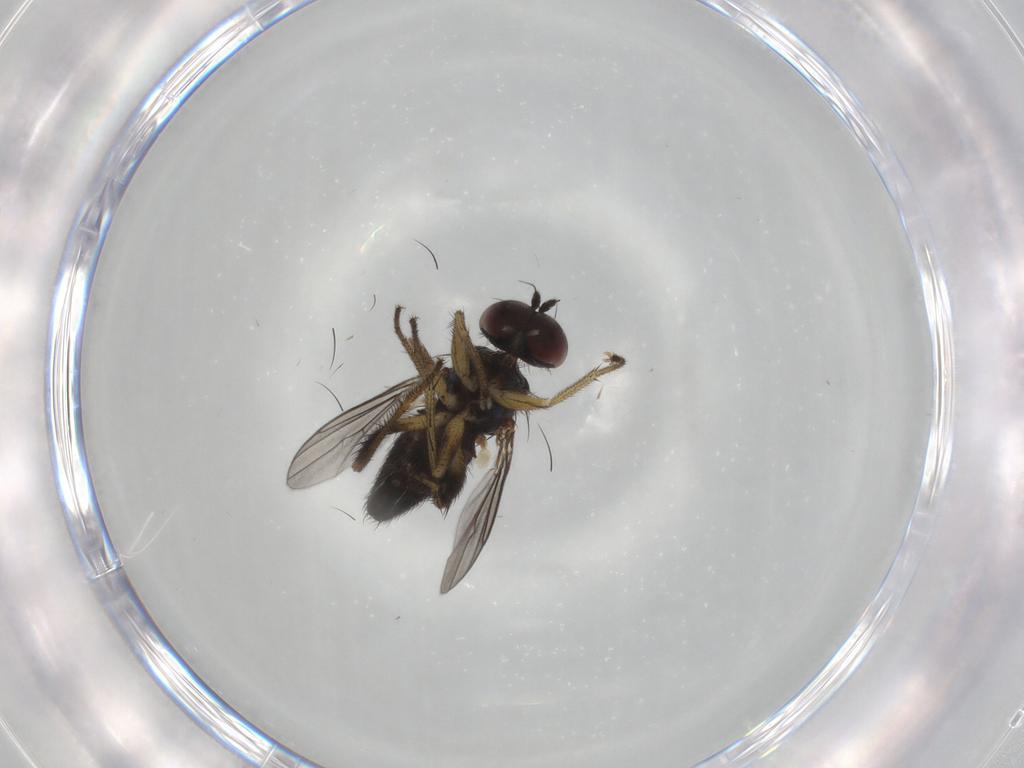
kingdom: Animalia
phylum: Arthropoda
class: Insecta
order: Diptera
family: Dolichopodidae
